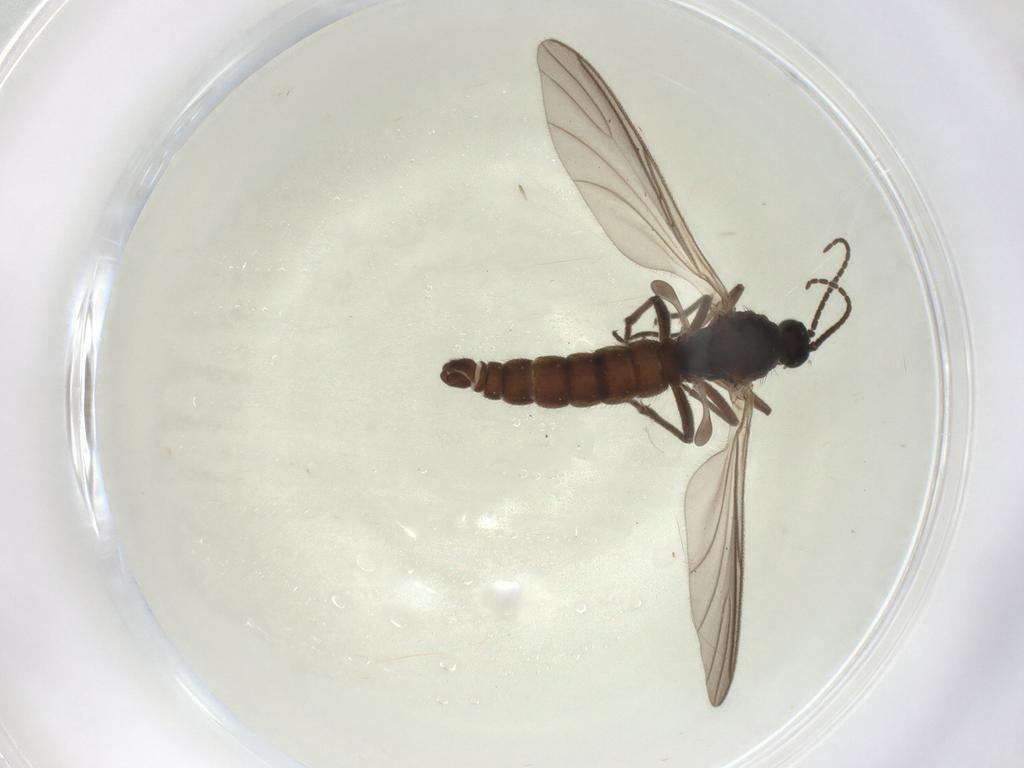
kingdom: Animalia
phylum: Arthropoda
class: Insecta
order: Diptera
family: Sciaridae
